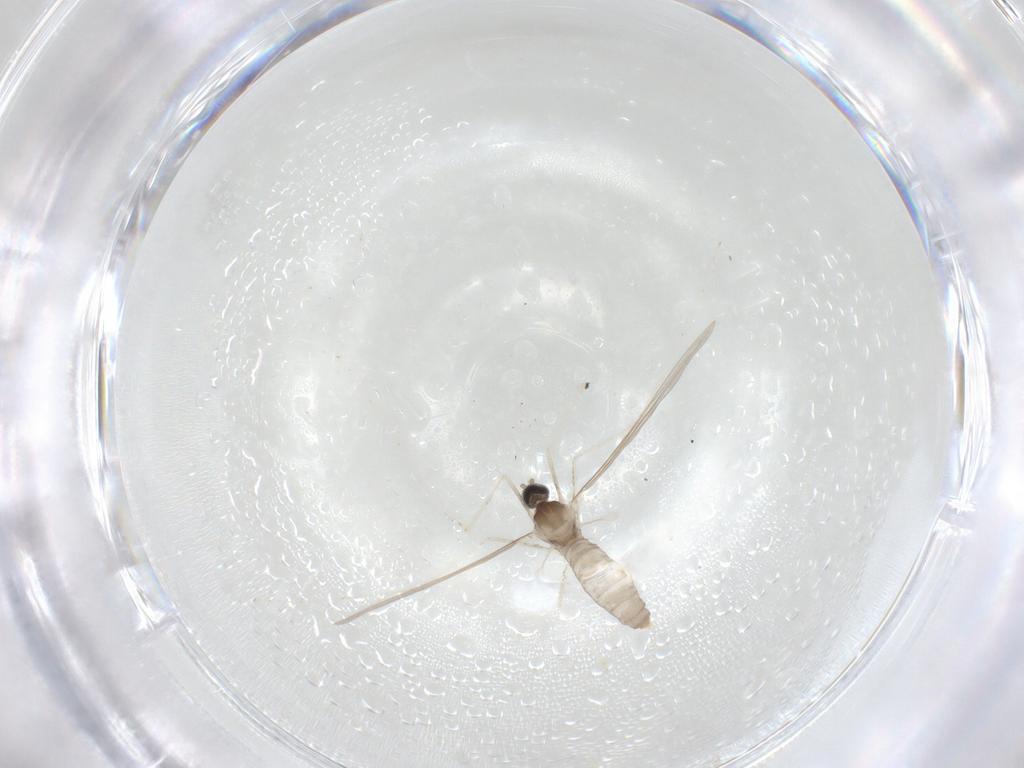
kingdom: Animalia
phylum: Arthropoda
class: Insecta
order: Diptera
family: Cecidomyiidae
